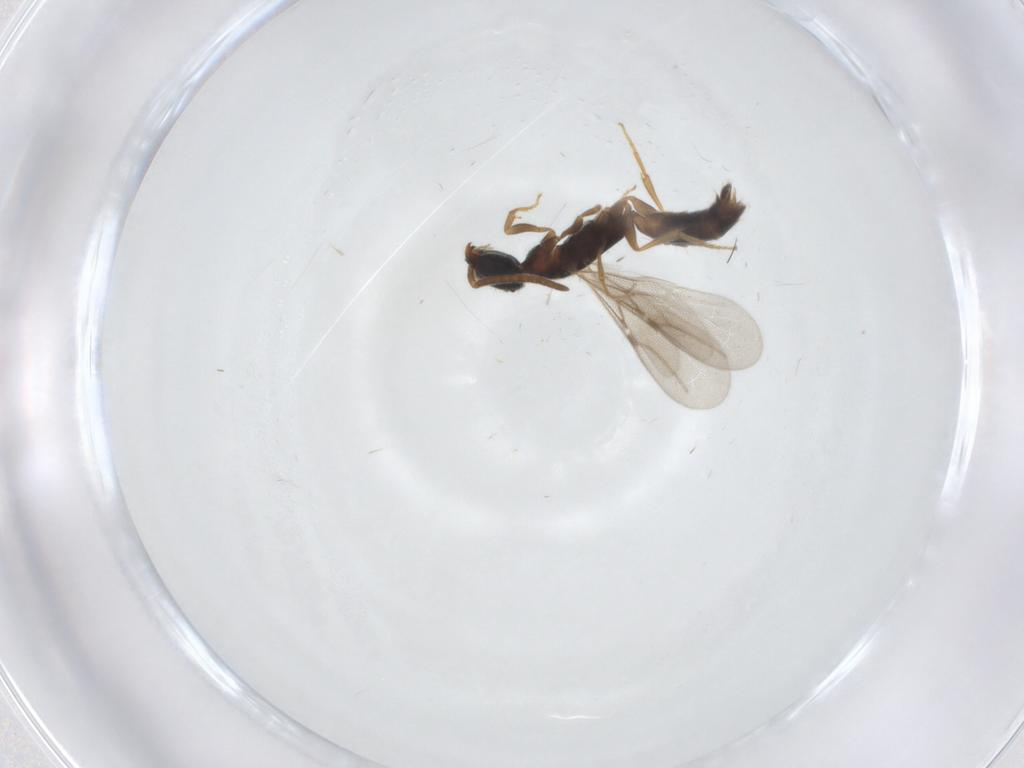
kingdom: Animalia
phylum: Arthropoda
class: Insecta
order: Hymenoptera
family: Bethylidae
